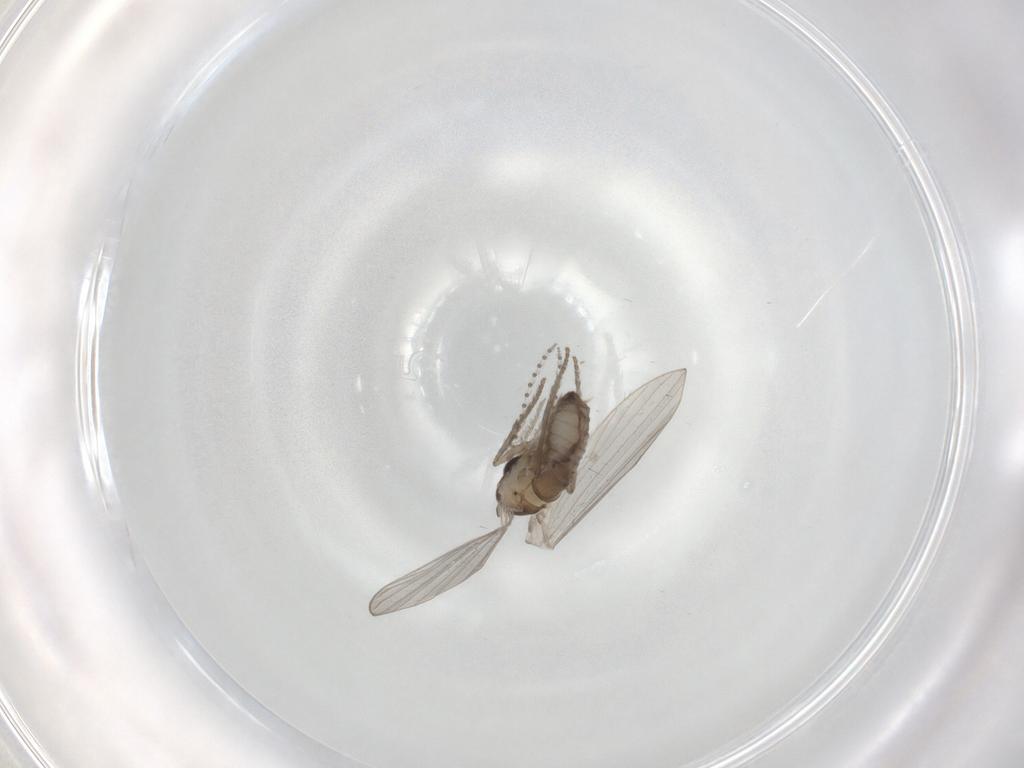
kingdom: Animalia
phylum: Arthropoda
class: Insecta
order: Diptera
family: Psychodidae
